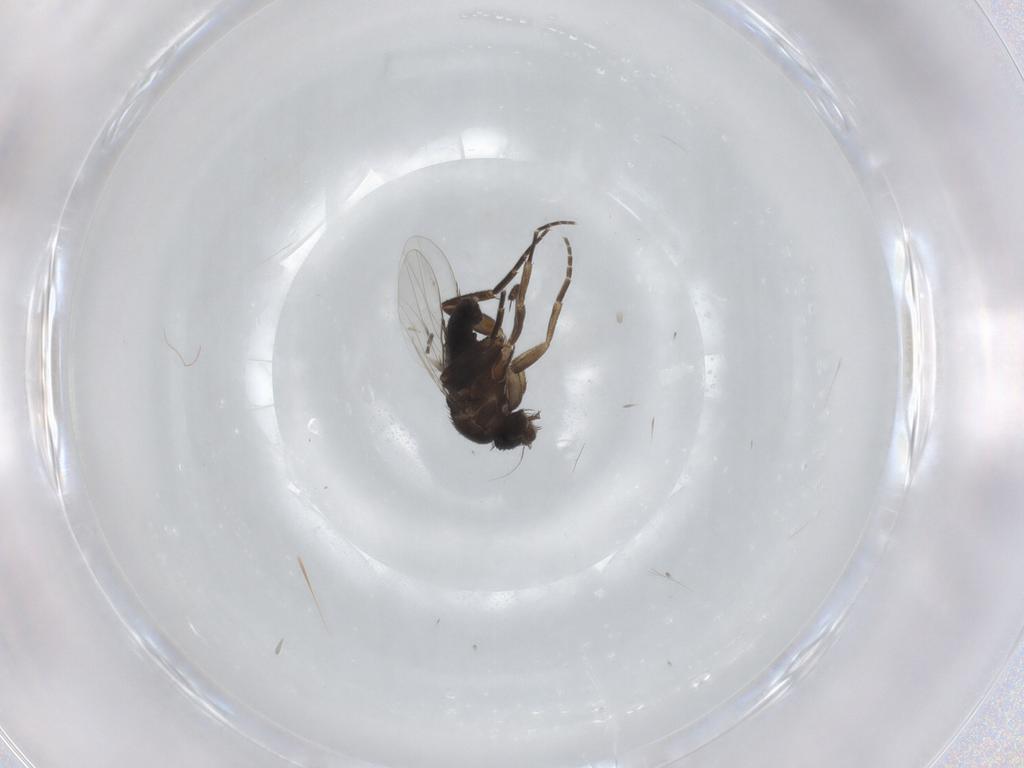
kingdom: Animalia
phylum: Arthropoda
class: Insecta
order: Diptera
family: Phoridae
